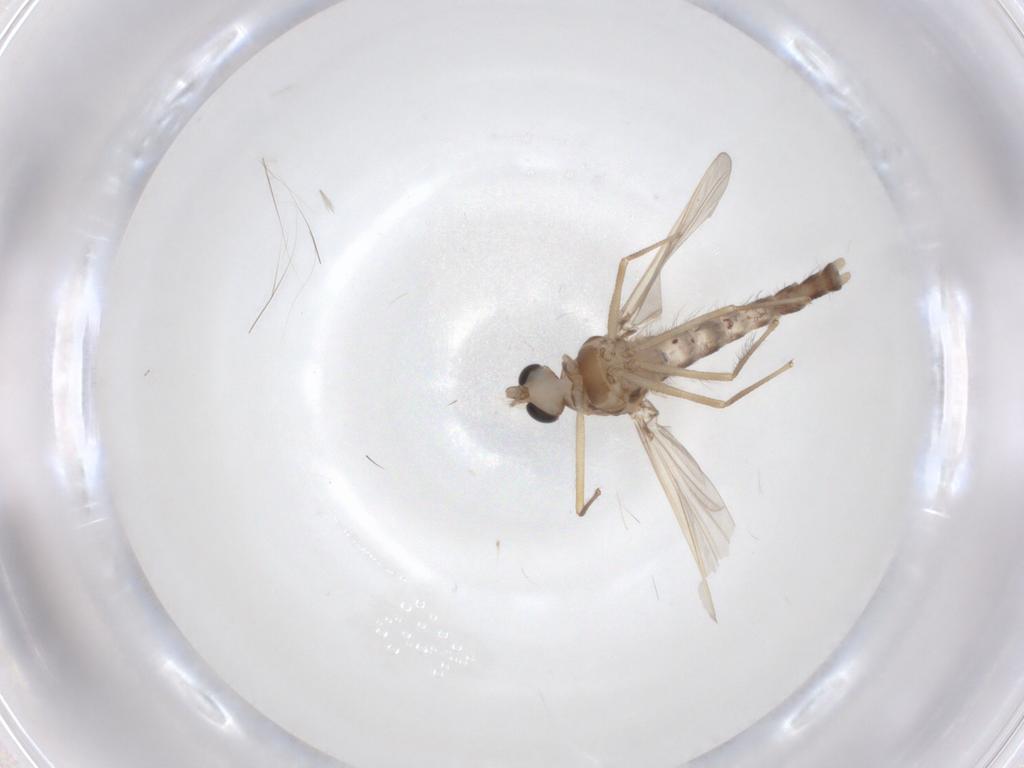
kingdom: Animalia
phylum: Arthropoda
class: Insecta
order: Diptera
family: Chironomidae
